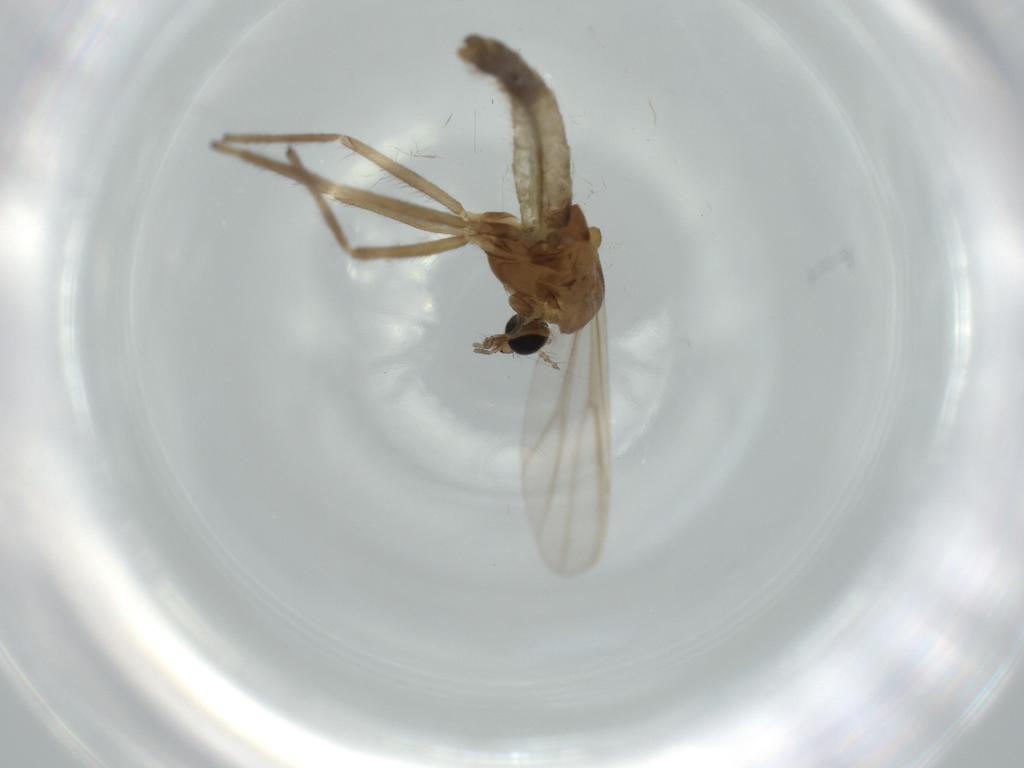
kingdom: Animalia
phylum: Arthropoda
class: Insecta
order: Diptera
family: Chironomidae
